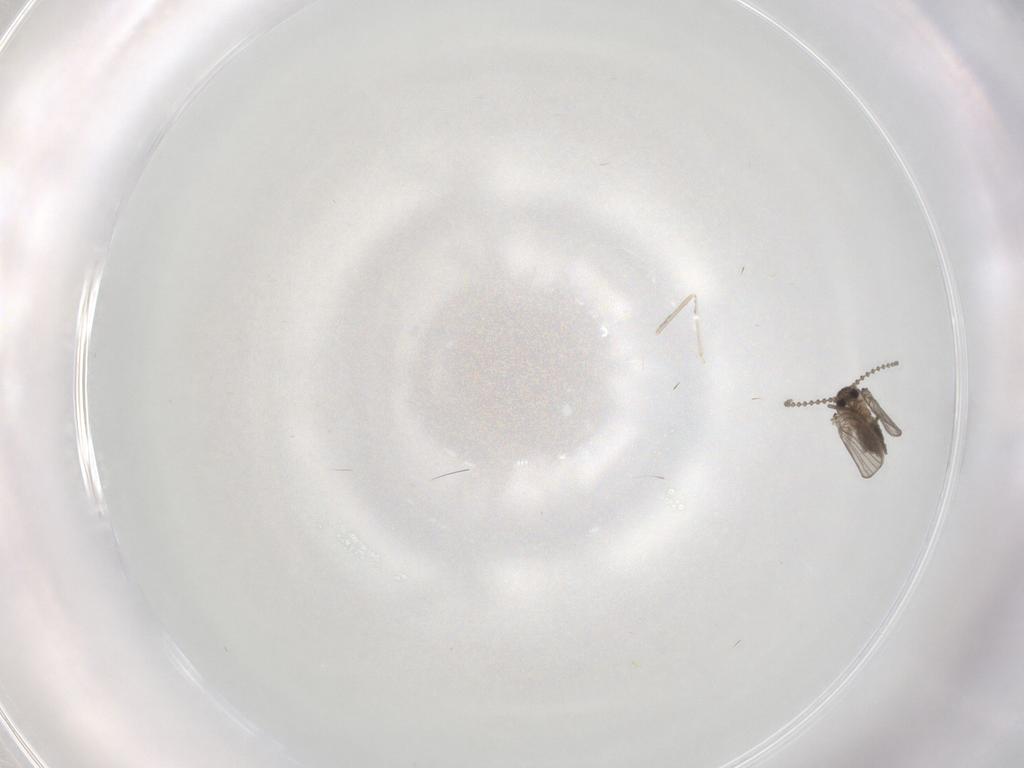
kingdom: Animalia
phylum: Arthropoda
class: Insecta
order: Diptera
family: Psychodidae
